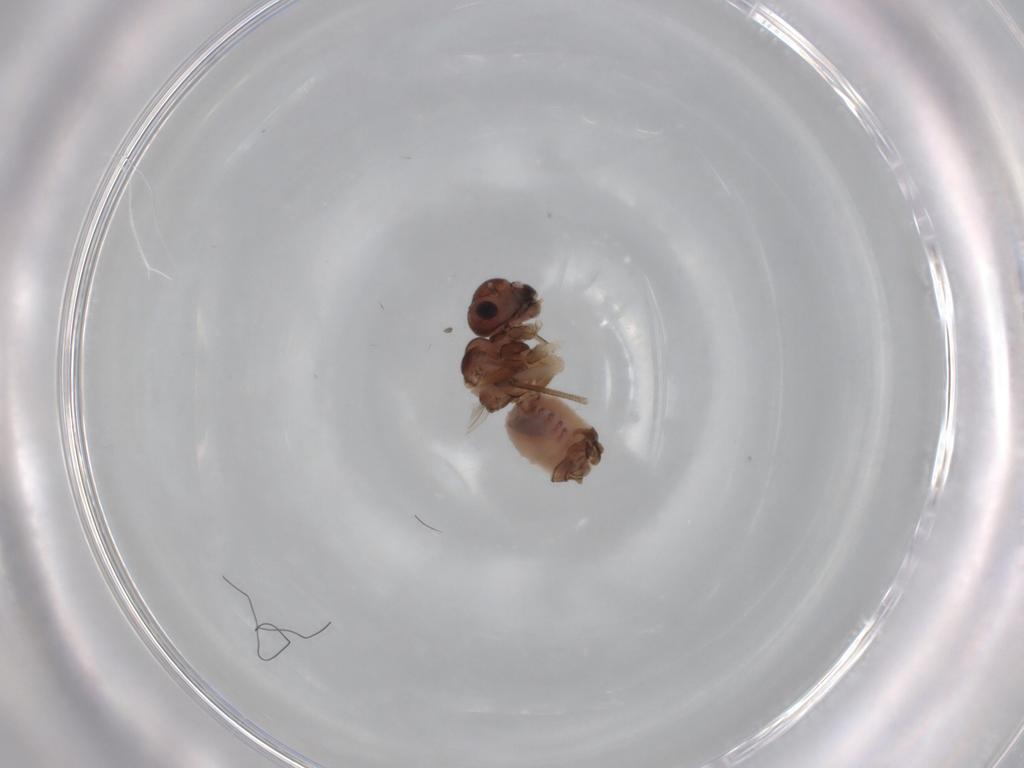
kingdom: Animalia
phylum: Arthropoda
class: Insecta
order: Psocodea
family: Peripsocidae
